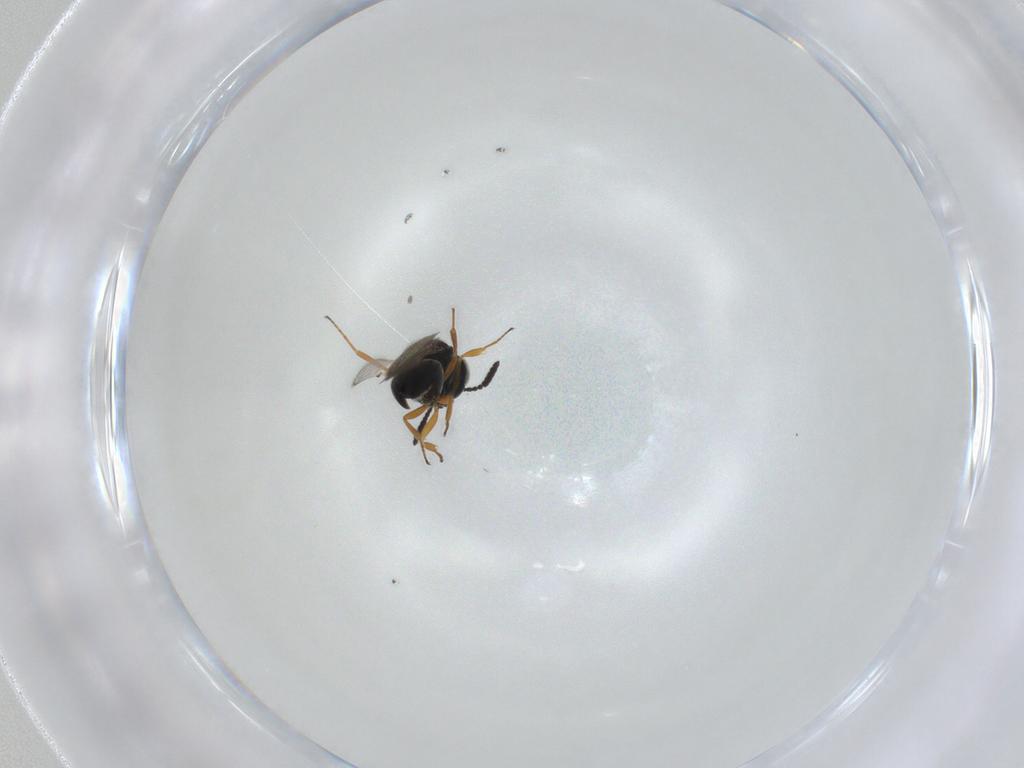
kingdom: Animalia
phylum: Arthropoda
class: Insecta
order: Hymenoptera
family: Scelionidae
